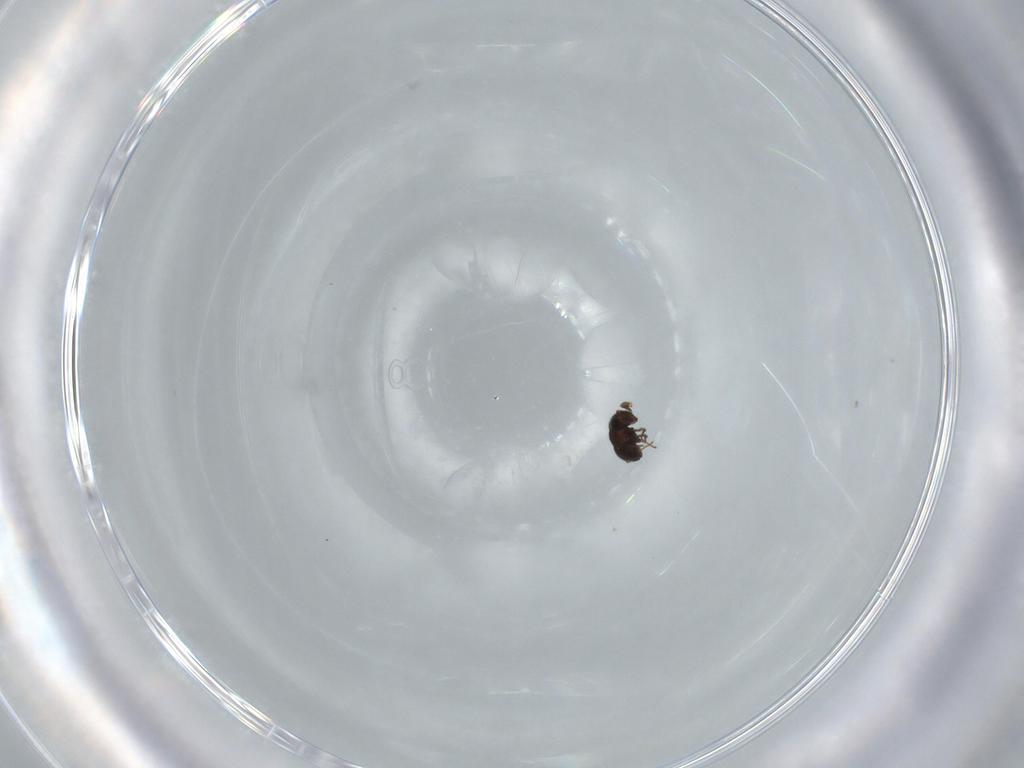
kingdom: Animalia
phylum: Arthropoda
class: Insecta
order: Hymenoptera
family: Scelionidae
